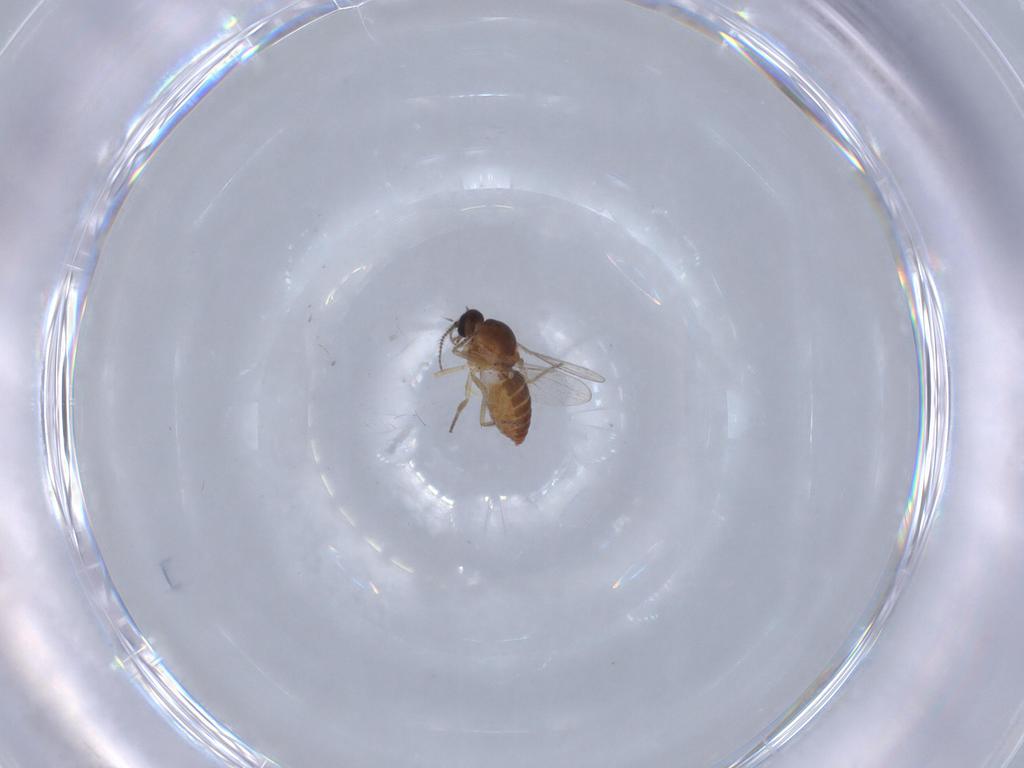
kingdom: Animalia
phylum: Arthropoda
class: Insecta
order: Diptera
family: Ceratopogonidae
